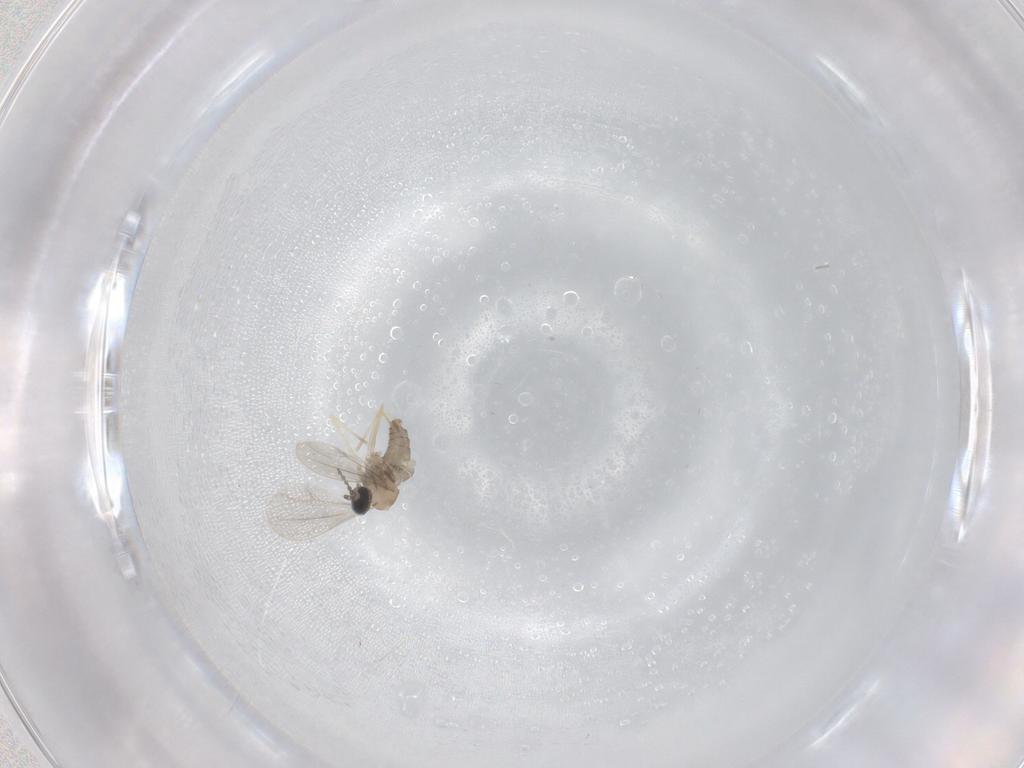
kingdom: Animalia
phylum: Arthropoda
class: Insecta
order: Diptera
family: Cecidomyiidae
